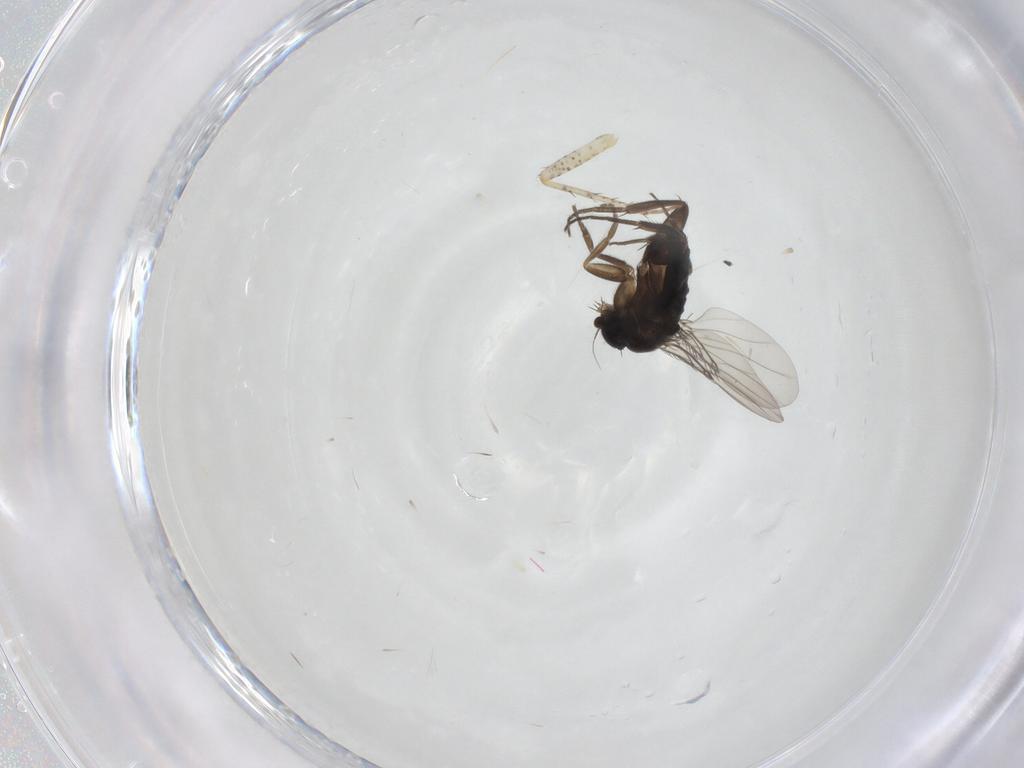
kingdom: Animalia
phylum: Arthropoda
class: Insecta
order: Diptera
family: Phoridae
